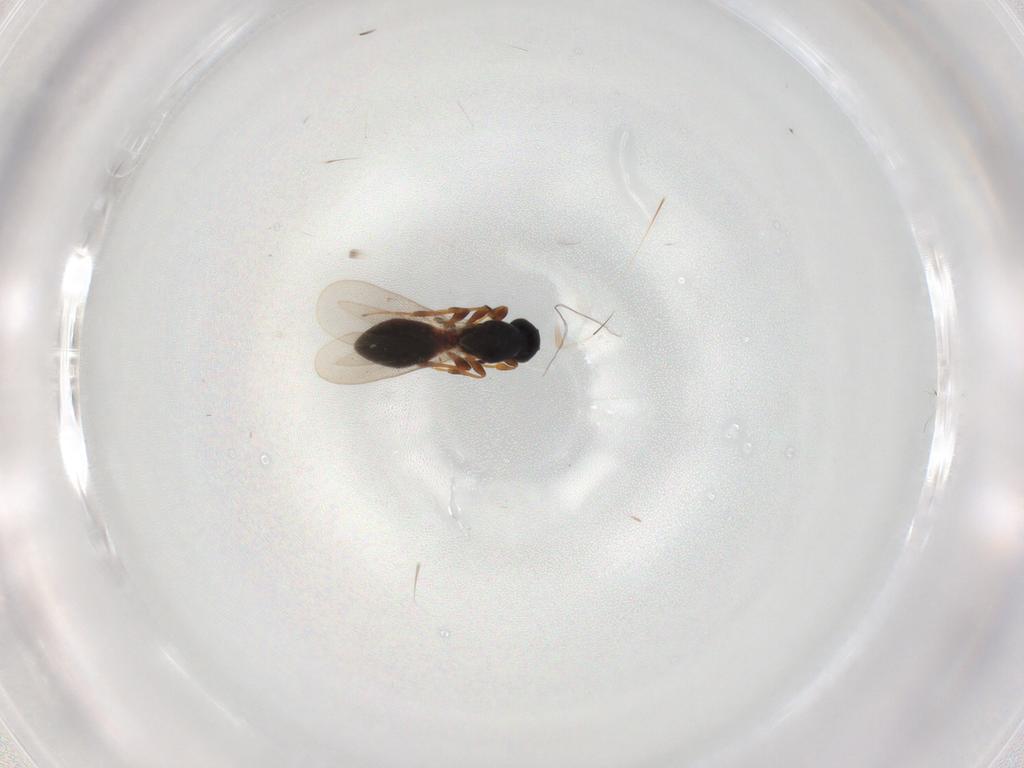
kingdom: Animalia
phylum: Arthropoda
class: Insecta
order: Hymenoptera
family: Platygastridae
